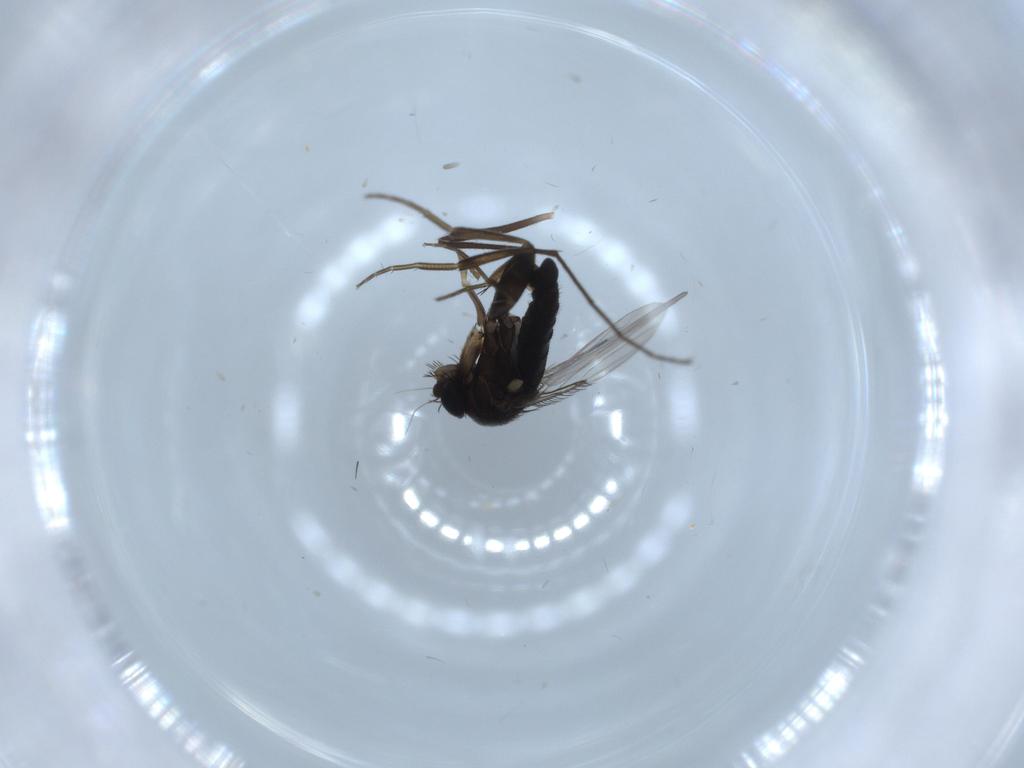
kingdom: Animalia
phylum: Arthropoda
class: Insecta
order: Diptera
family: Phoridae
